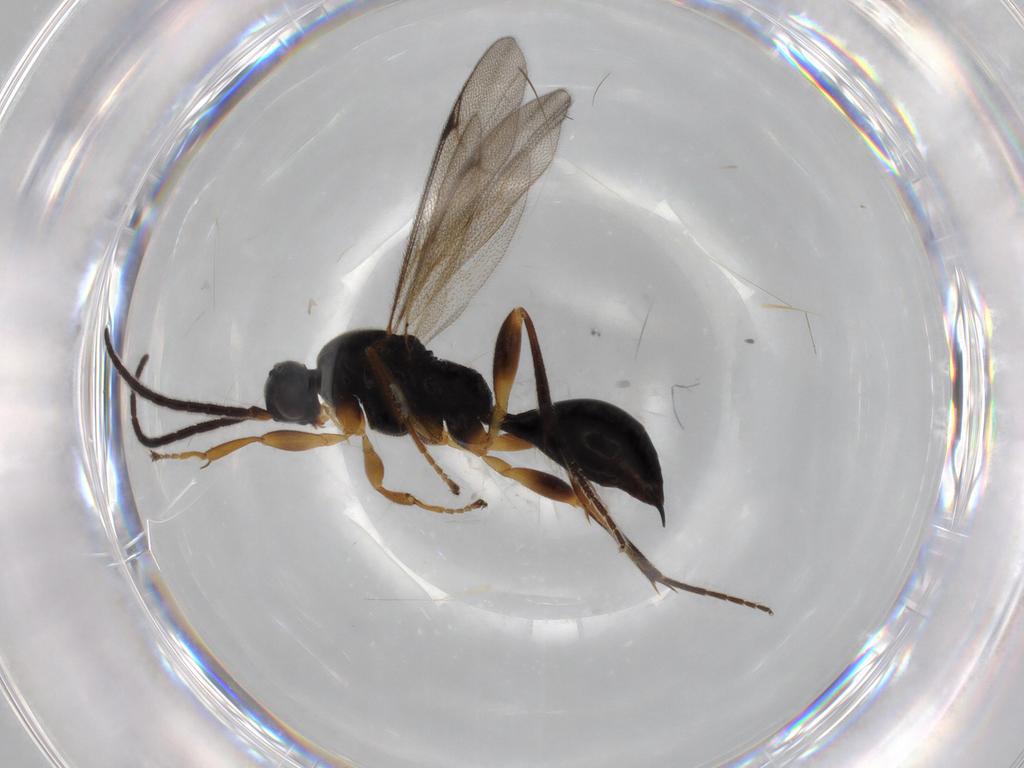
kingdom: Animalia
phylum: Arthropoda
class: Insecta
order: Hymenoptera
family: Proctotrupidae
